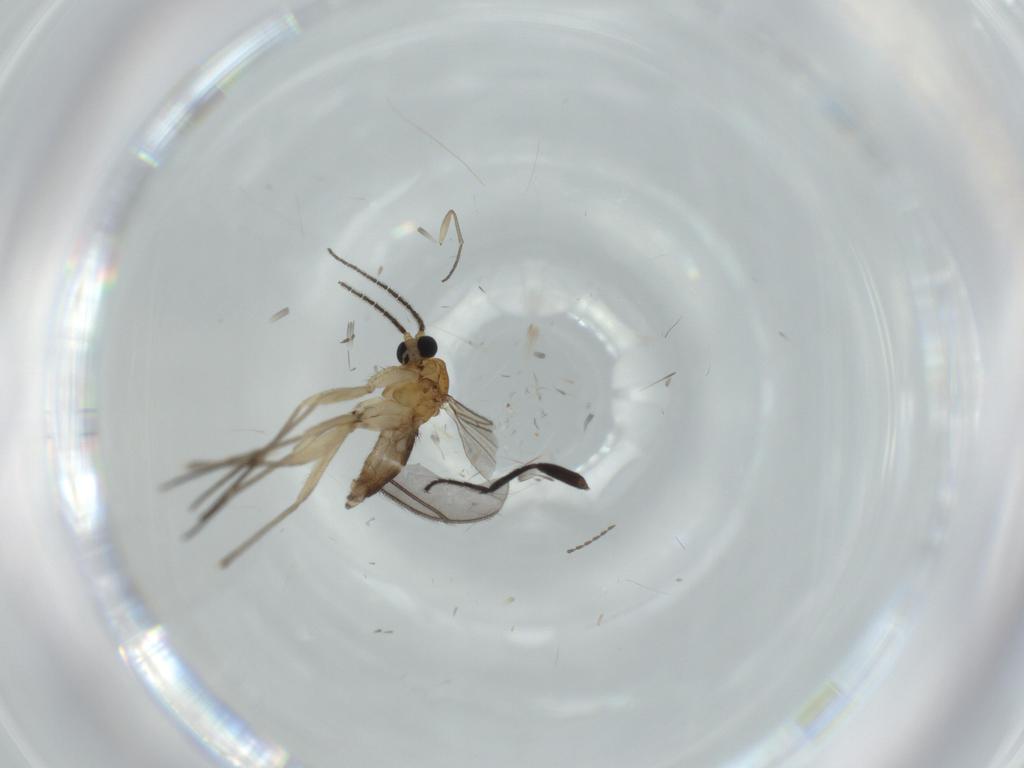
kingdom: Animalia
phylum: Arthropoda
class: Insecta
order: Diptera
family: Sciaridae
